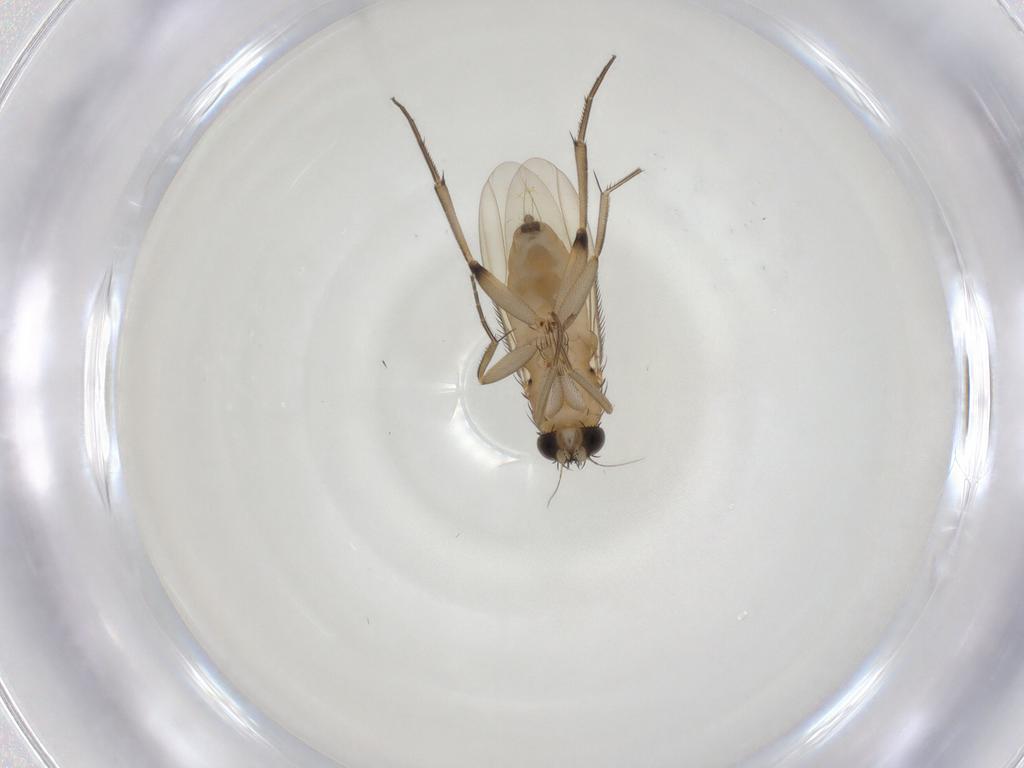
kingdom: Animalia
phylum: Arthropoda
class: Insecta
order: Diptera
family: Phoridae
